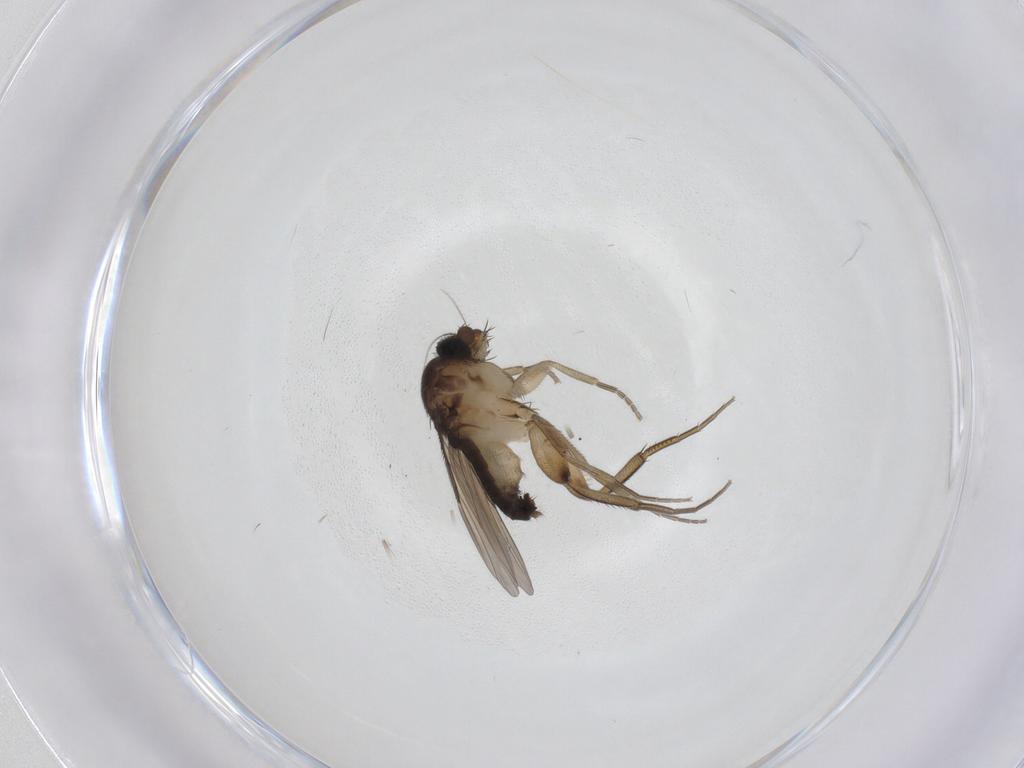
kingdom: Animalia
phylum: Arthropoda
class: Insecta
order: Diptera
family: Phoridae
